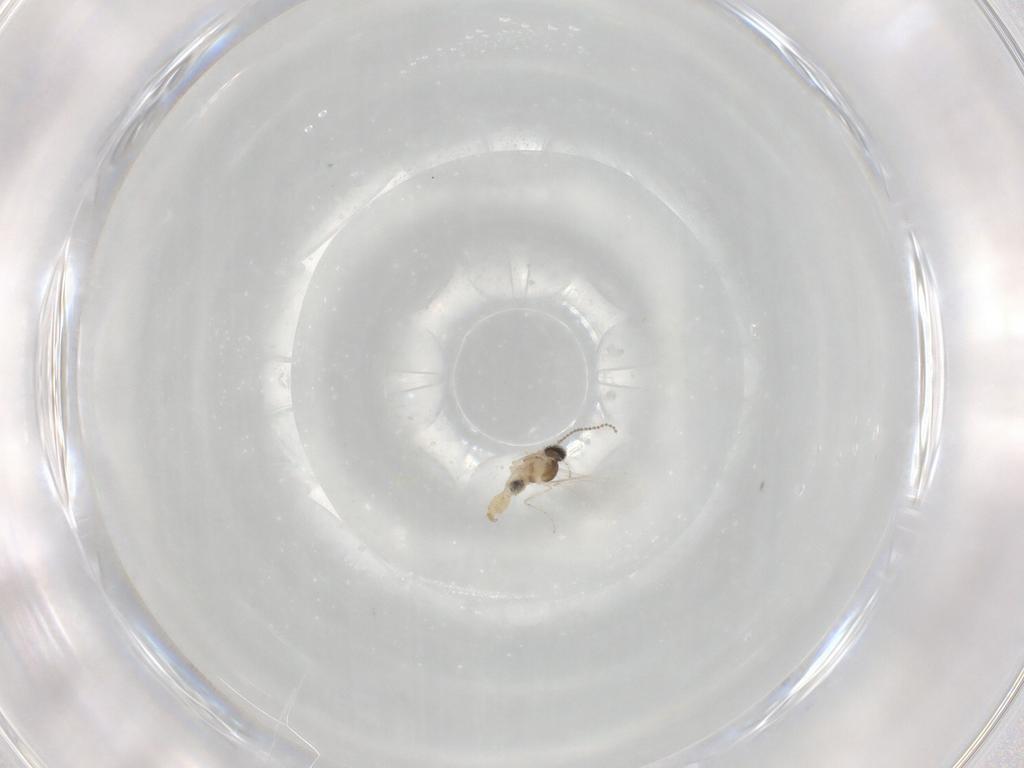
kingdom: Animalia
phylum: Arthropoda
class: Insecta
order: Diptera
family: Cecidomyiidae
